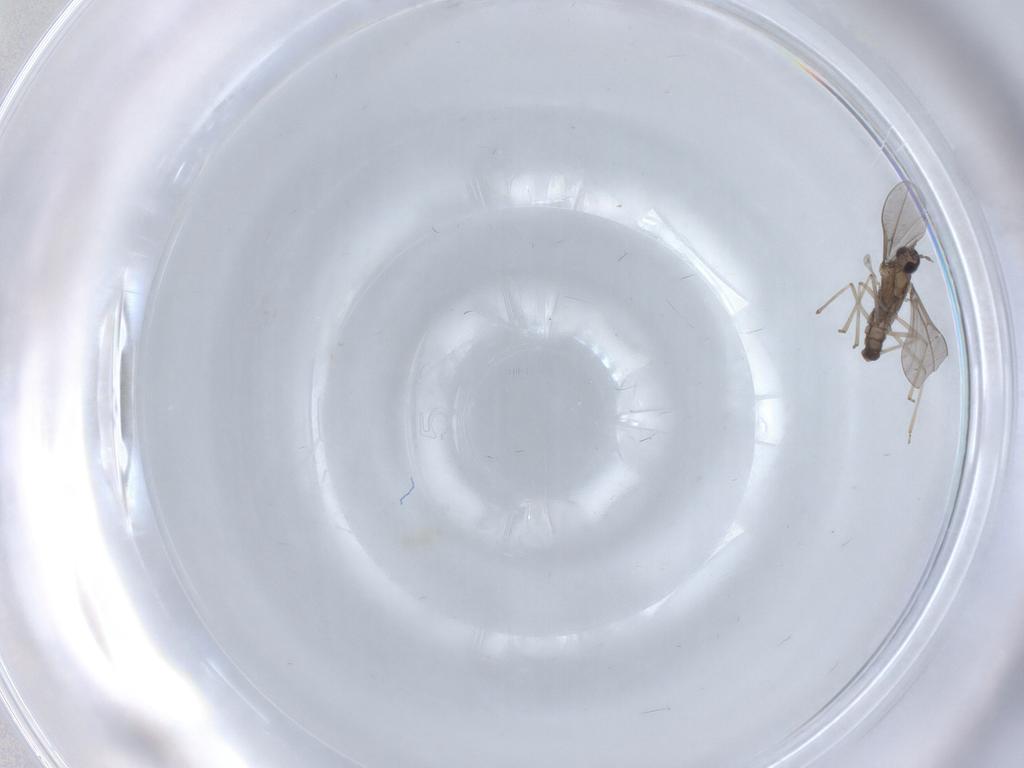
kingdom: Animalia
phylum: Arthropoda
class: Insecta
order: Diptera
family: Cecidomyiidae
